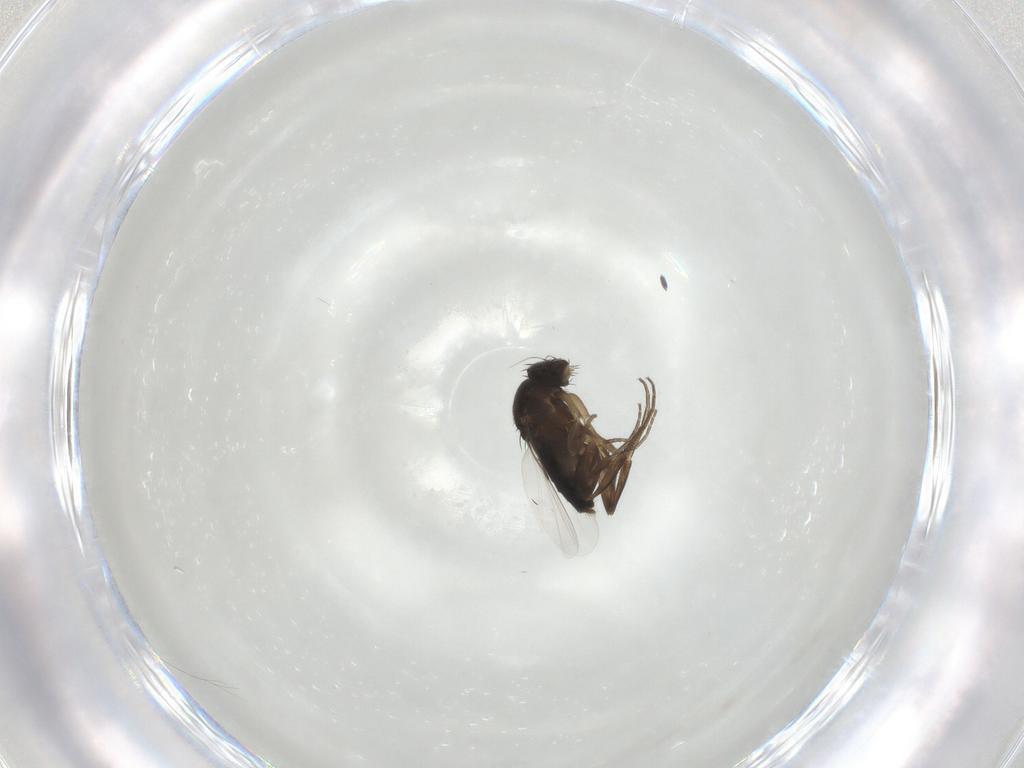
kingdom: Animalia
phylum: Arthropoda
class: Insecta
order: Diptera
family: Phoridae
